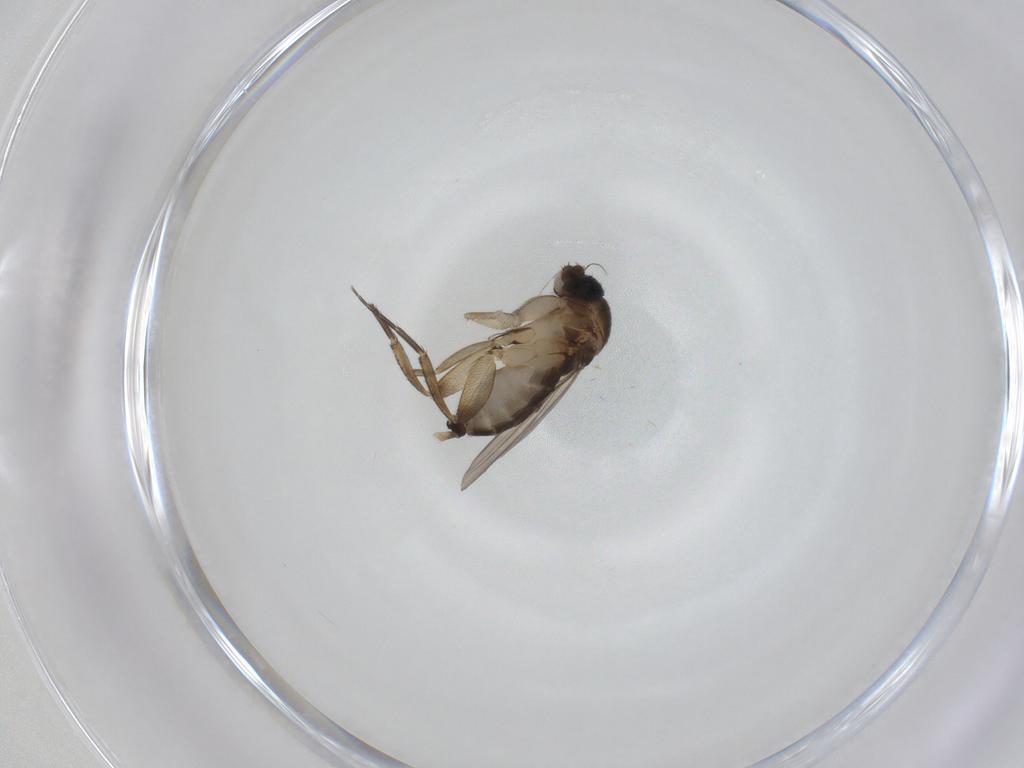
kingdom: Animalia
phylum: Arthropoda
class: Insecta
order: Diptera
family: Phoridae
